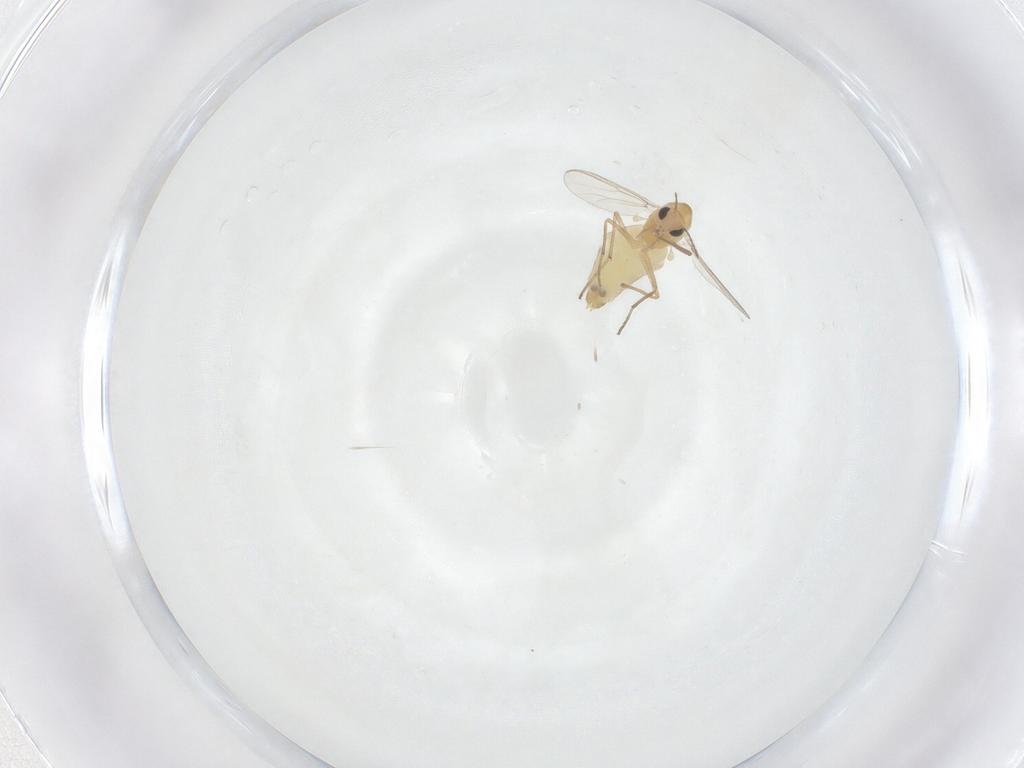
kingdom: Animalia
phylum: Arthropoda
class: Insecta
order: Diptera
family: Chironomidae
